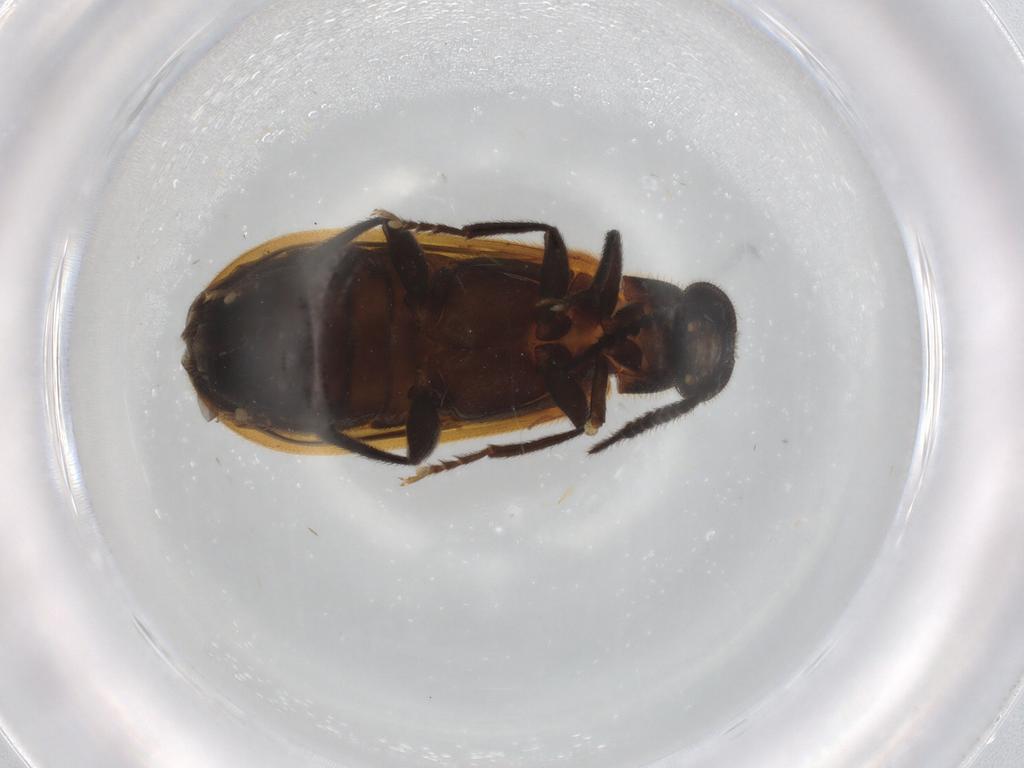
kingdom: Animalia
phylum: Arthropoda
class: Insecta
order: Coleoptera
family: Mycteridae
